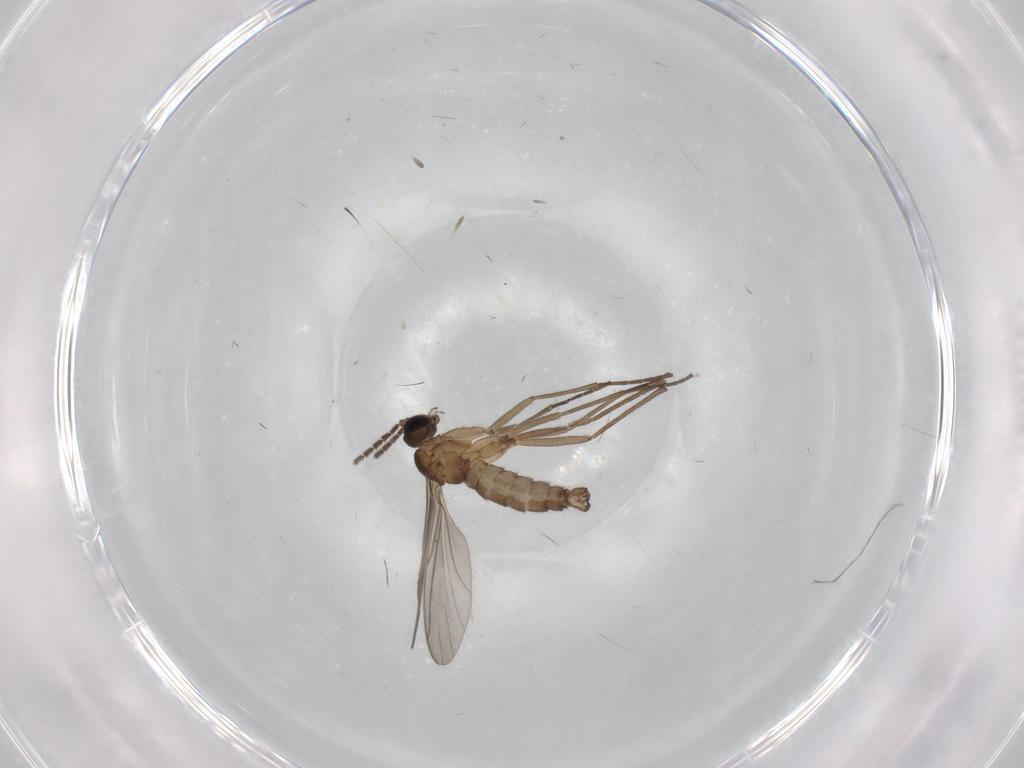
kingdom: Animalia
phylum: Arthropoda
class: Insecta
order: Diptera
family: Sciaridae
